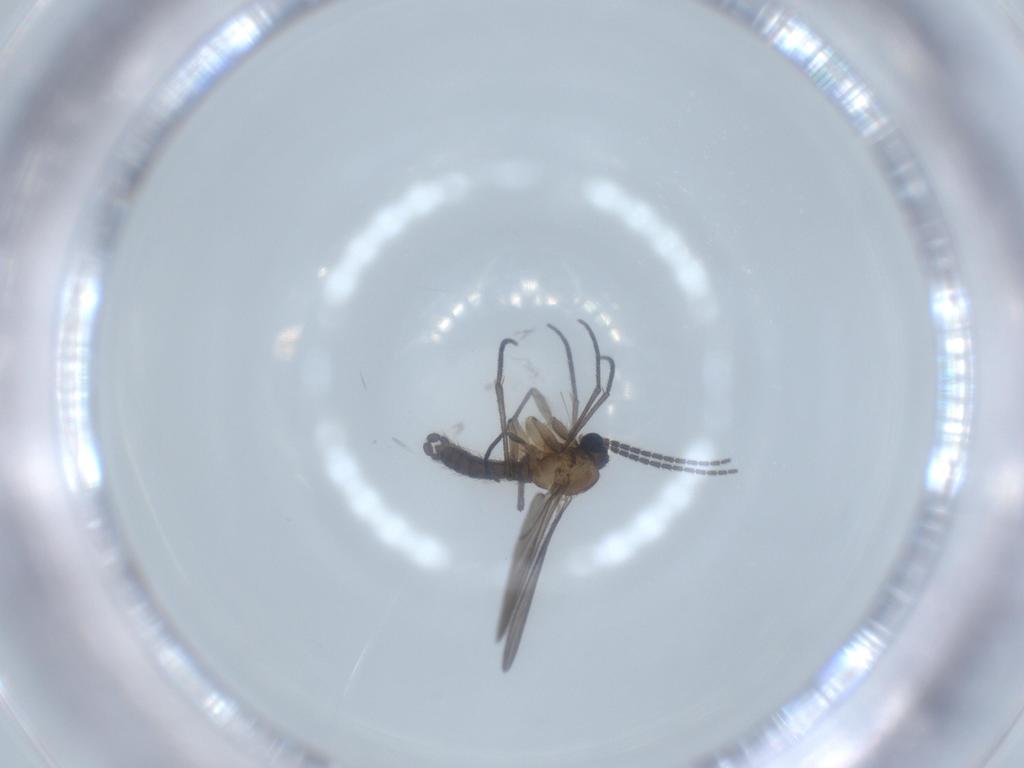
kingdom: Animalia
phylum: Arthropoda
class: Insecta
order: Diptera
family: Sciaridae
